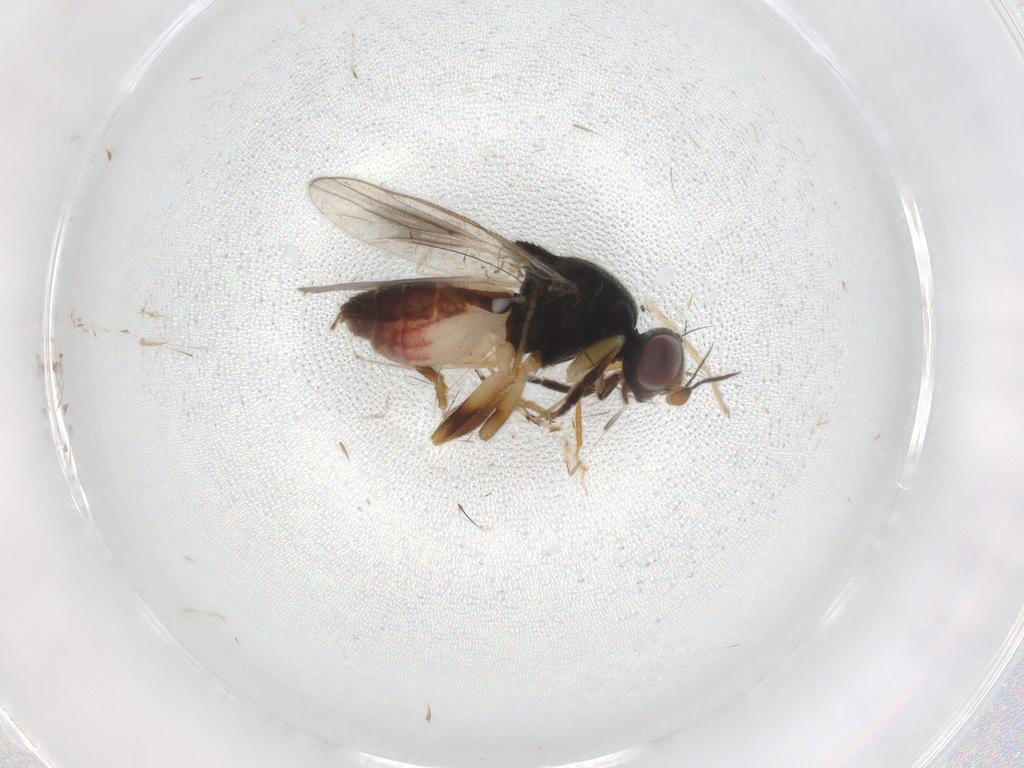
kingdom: Animalia
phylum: Arthropoda
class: Insecta
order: Diptera
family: Chloropidae
